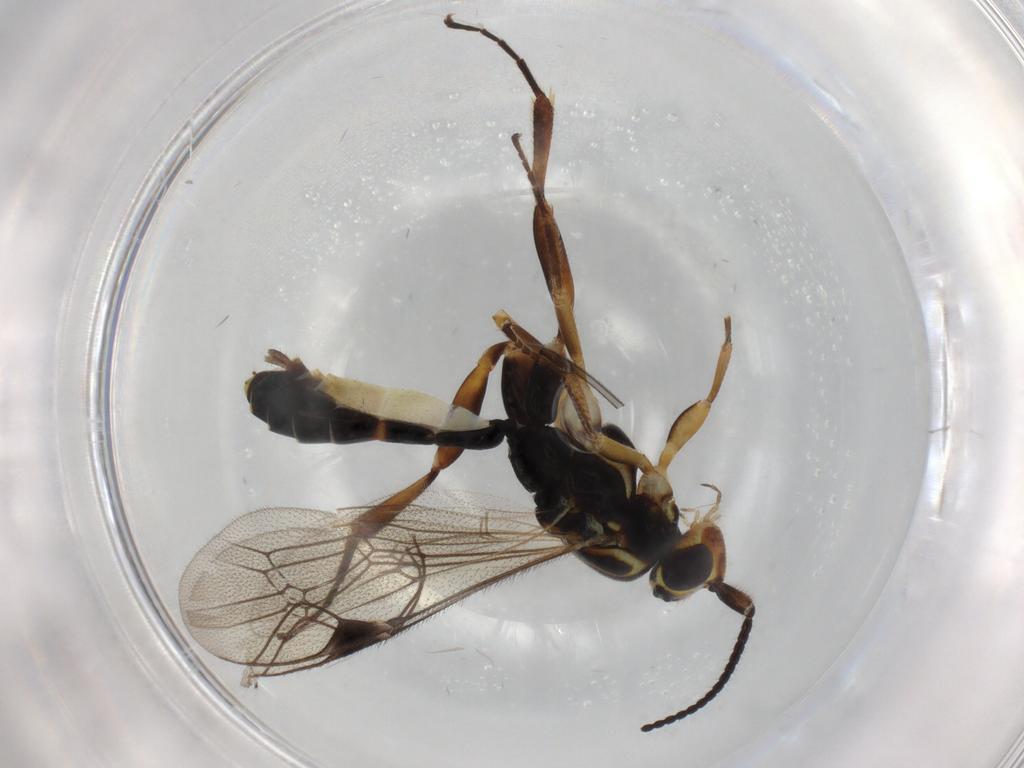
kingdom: Animalia
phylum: Arthropoda
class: Insecta
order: Hymenoptera
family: Ichneumonidae
